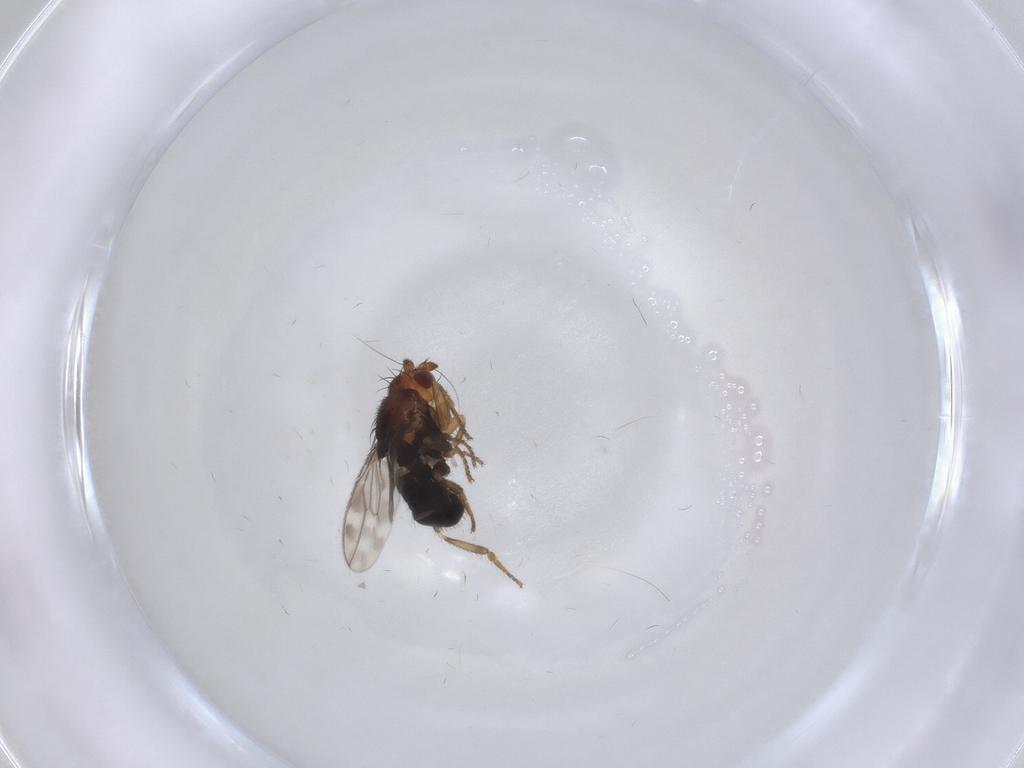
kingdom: Animalia
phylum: Arthropoda
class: Insecta
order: Diptera
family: Sphaeroceridae
